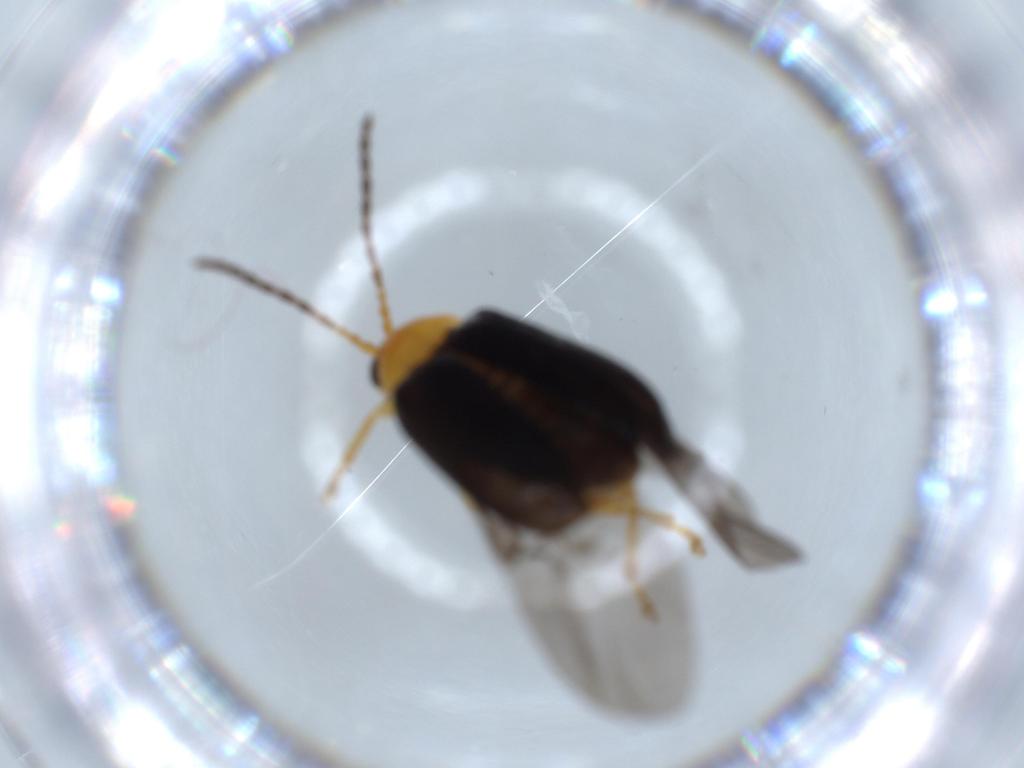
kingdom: Animalia
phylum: Arthropoda
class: Insecta
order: Coleoptera
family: Chrysomelidae
